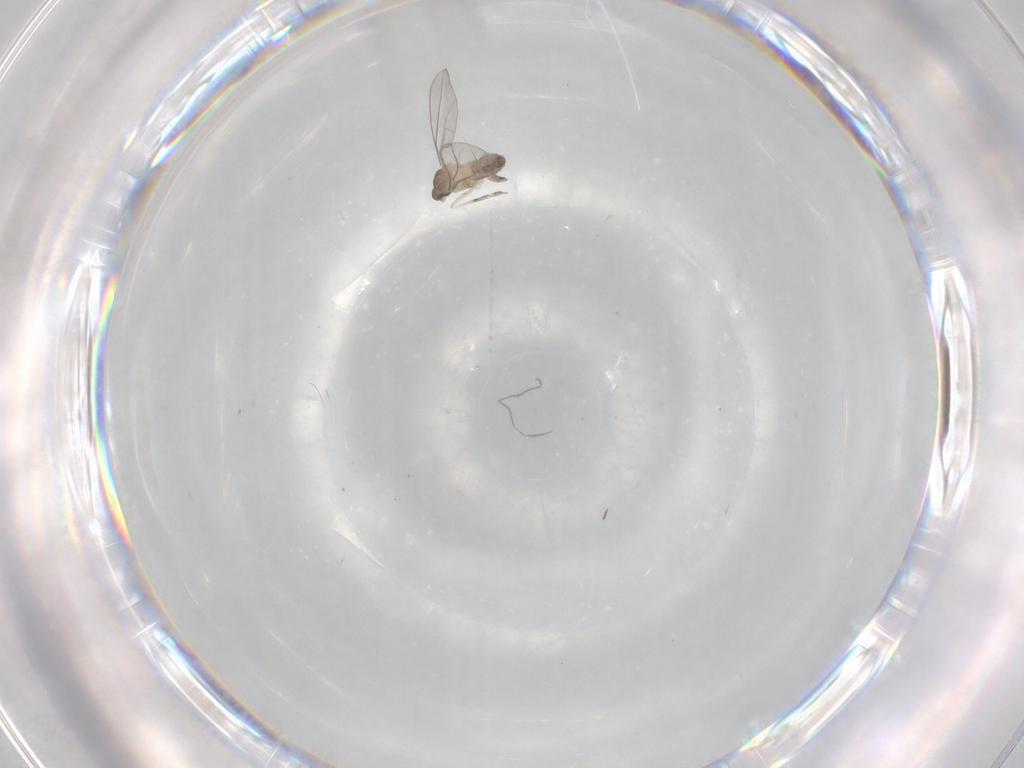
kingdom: Animalia
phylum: Arthropoda
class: Insecta
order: Diptera
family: Cecidomyiidae
